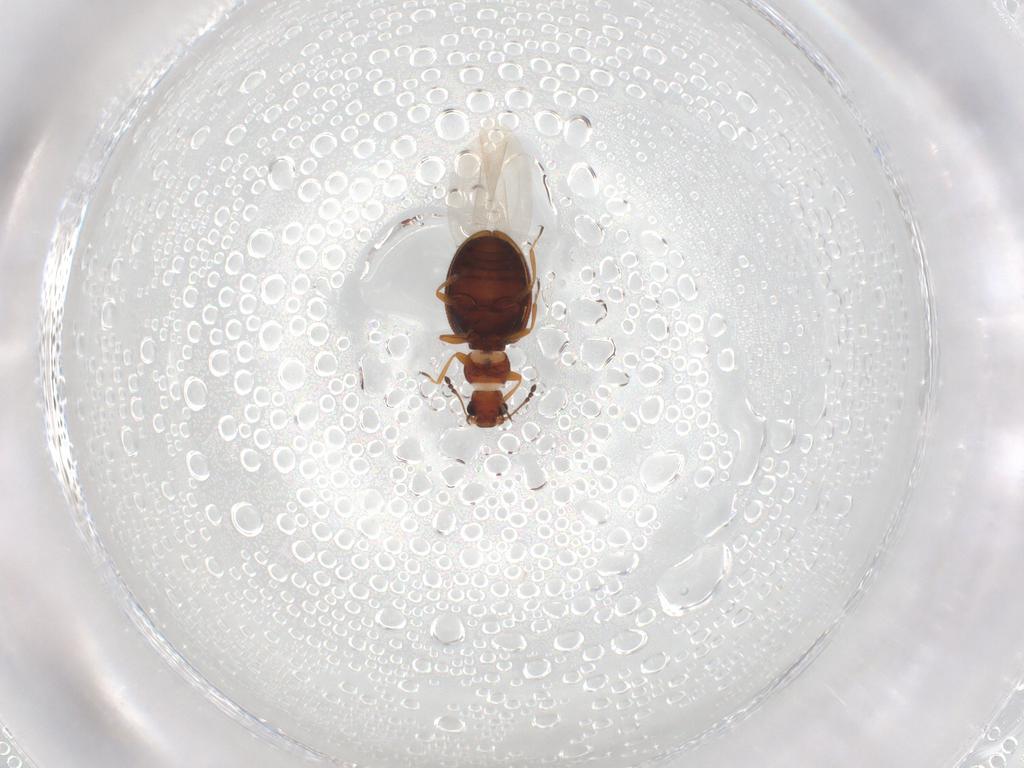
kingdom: Animalia
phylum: Arthropoda
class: Insecta
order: Coleoptera
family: Latridiidae
